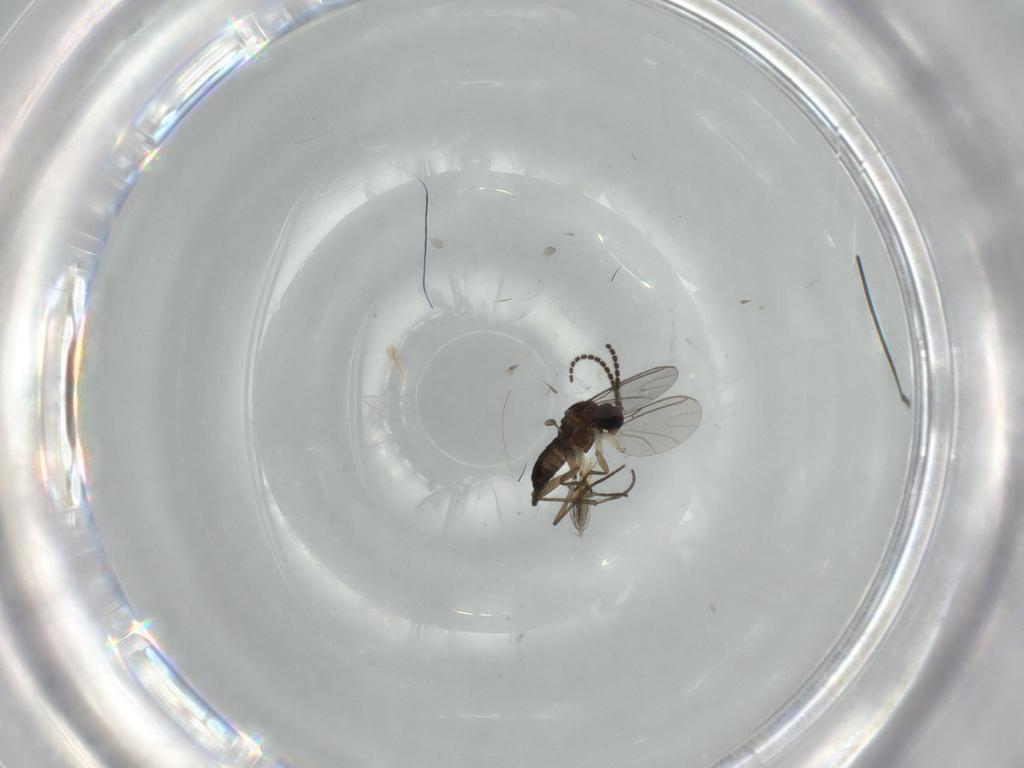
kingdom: Animalia
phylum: Arthropoda
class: Insecta
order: Diptera
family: Sciaridae
